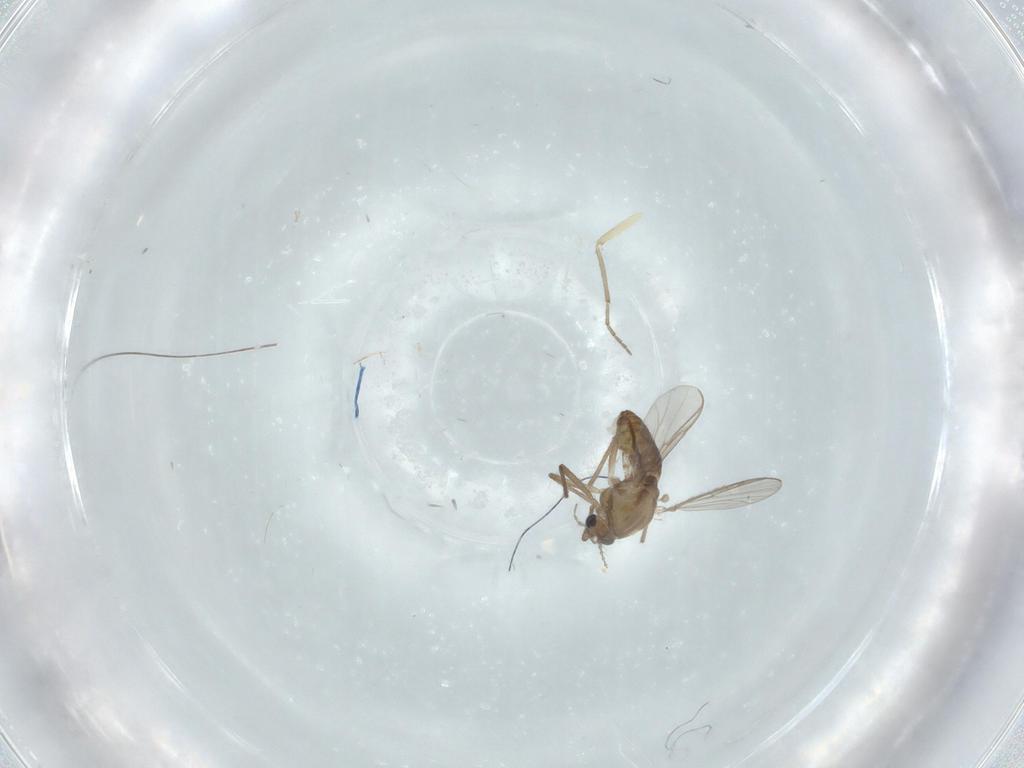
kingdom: Animalia
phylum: Arthropoda
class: Insecta
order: Diptera
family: Chironomidae
